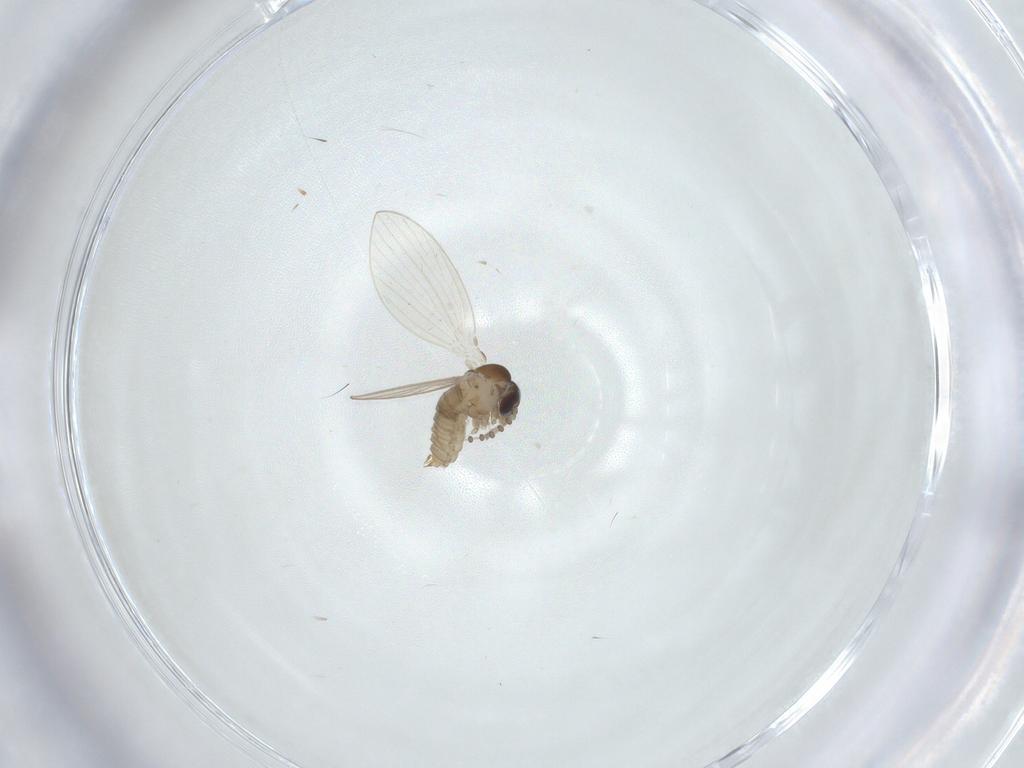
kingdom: Animalia
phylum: Arthropoda
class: Insecta
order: Diptera
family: Psychodidae
